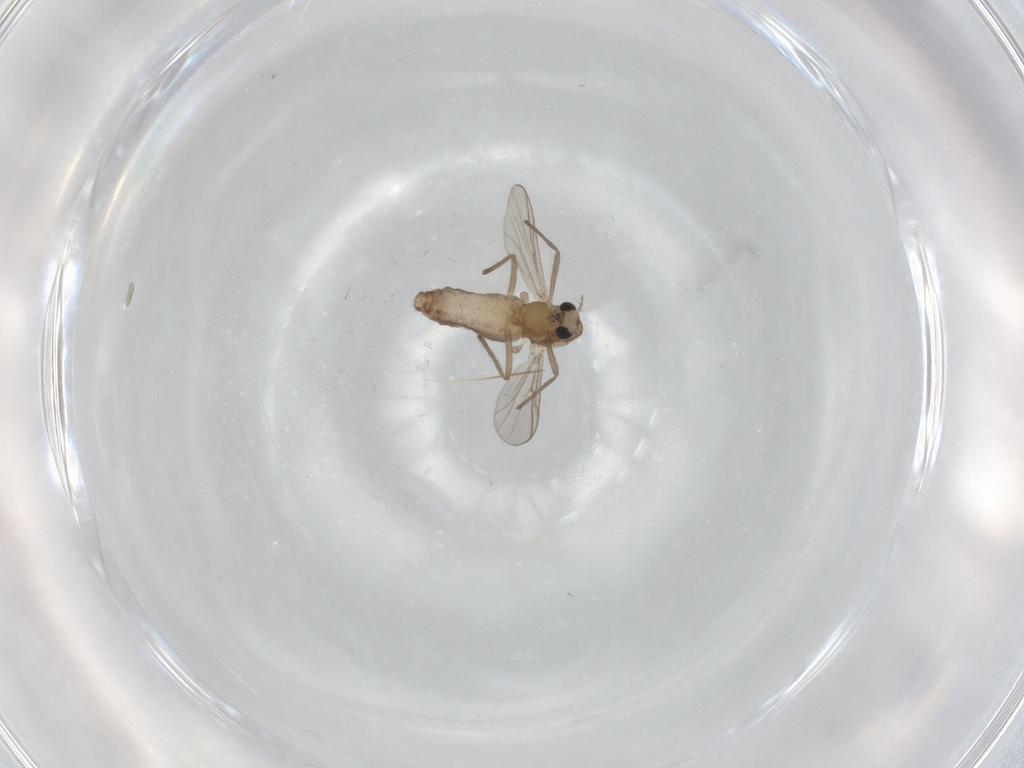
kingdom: Animalia
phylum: Arthropoda
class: Insecta
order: Diptera
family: Chironomidae
